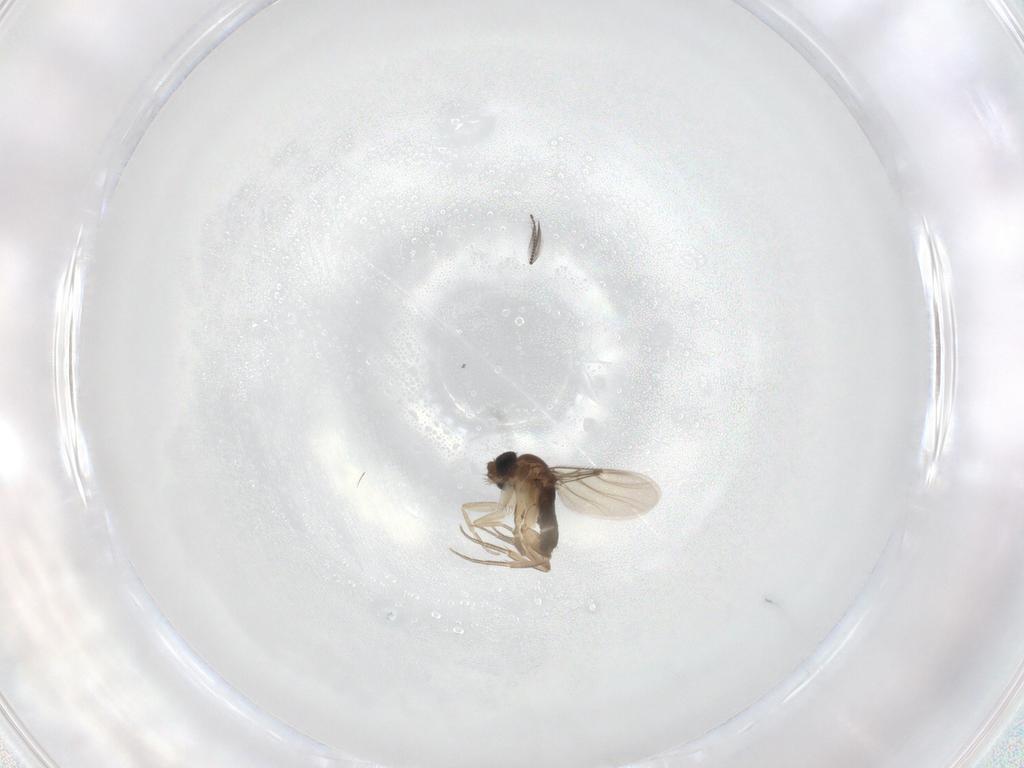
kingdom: Animalia
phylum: Arthropoda
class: Insecta
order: Diptera
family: Phoridae
